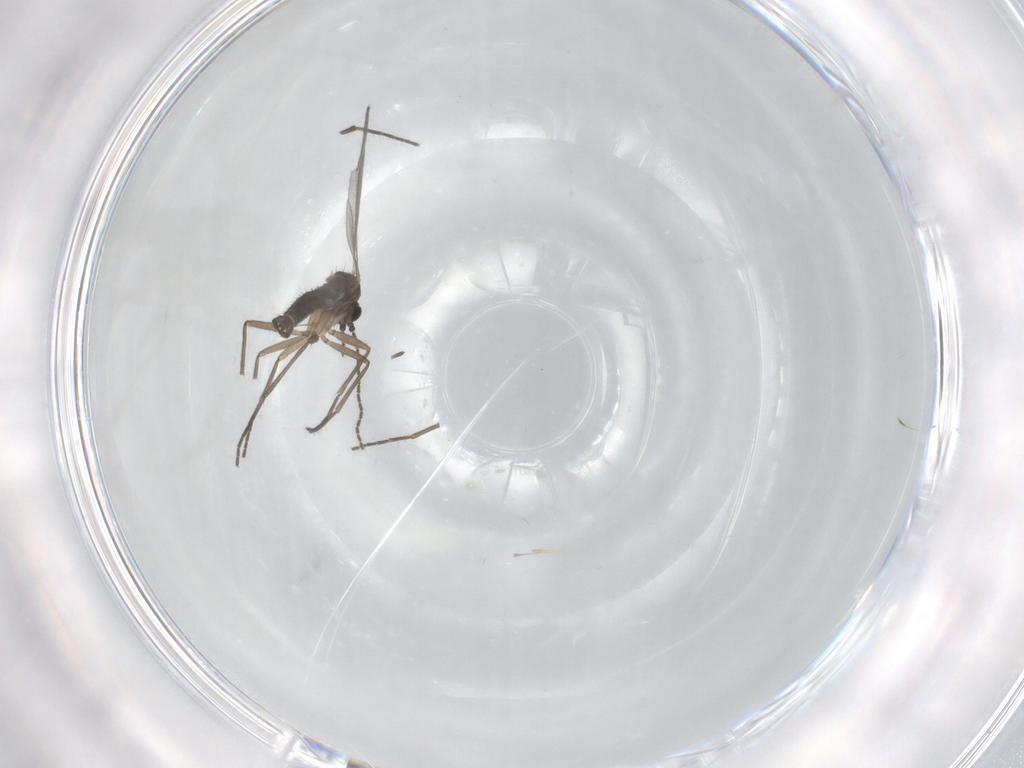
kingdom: Animalia
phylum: Arthropoda
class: Insecta
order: Diptera
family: Sciaridae
